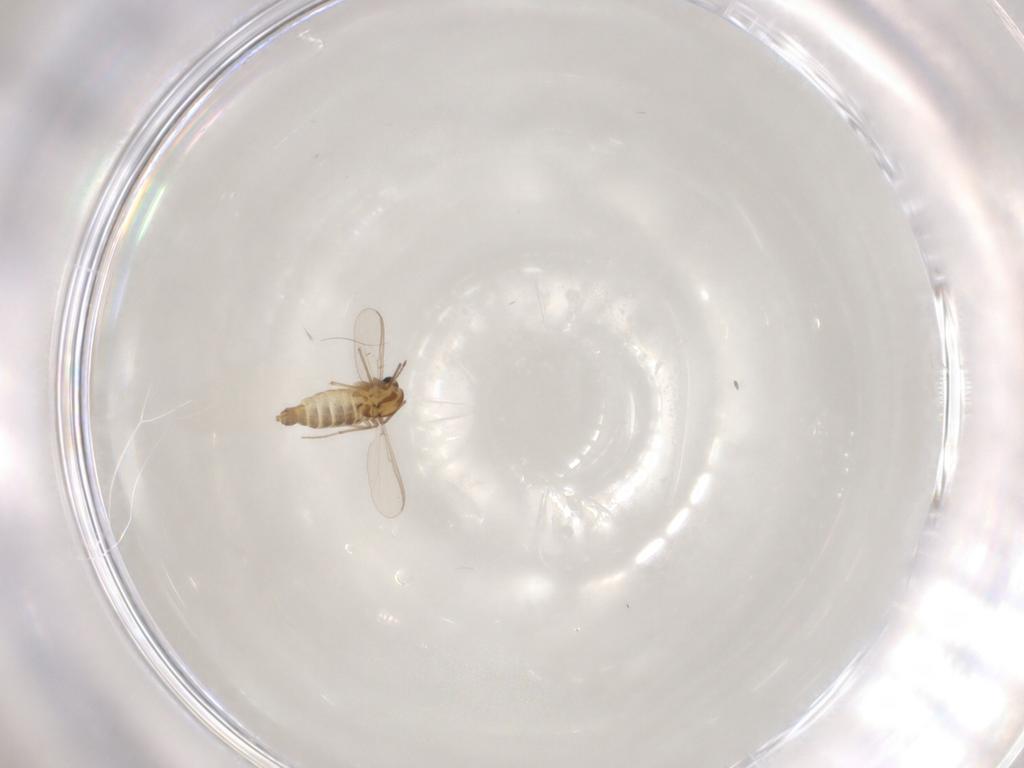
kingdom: Animalia
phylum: Arthropoda
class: Insecta
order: Diptera
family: Chironomidae
